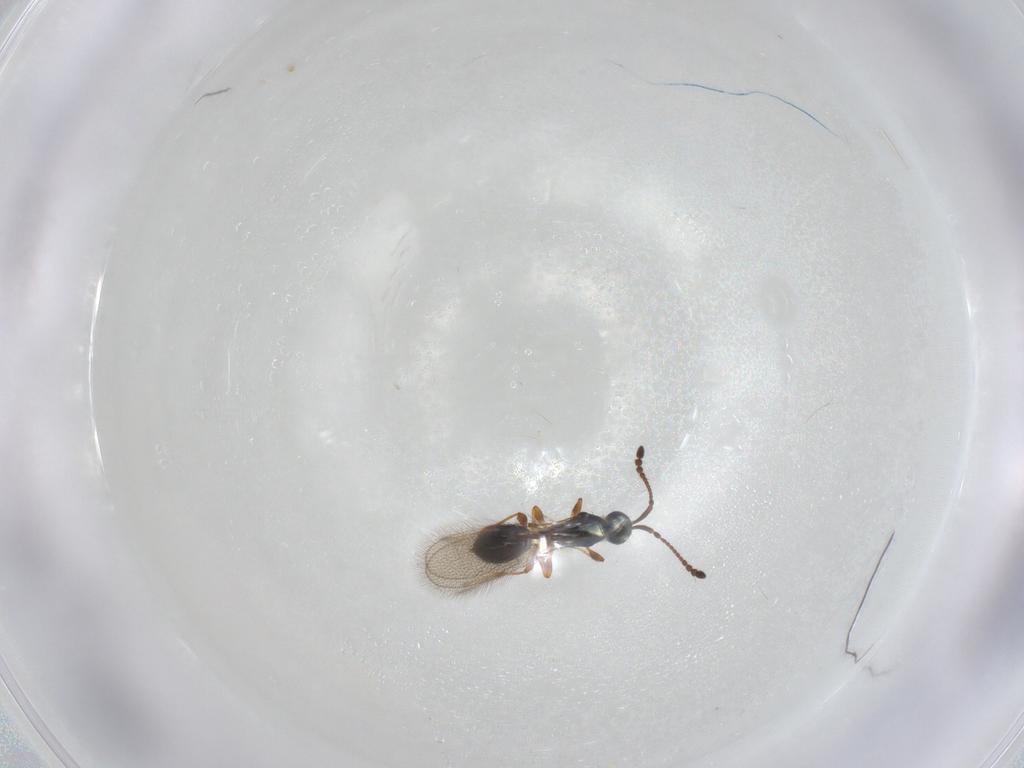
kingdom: Animalia
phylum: Arthropoda
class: Insecta
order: Hymenoptera
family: Diapriidae
